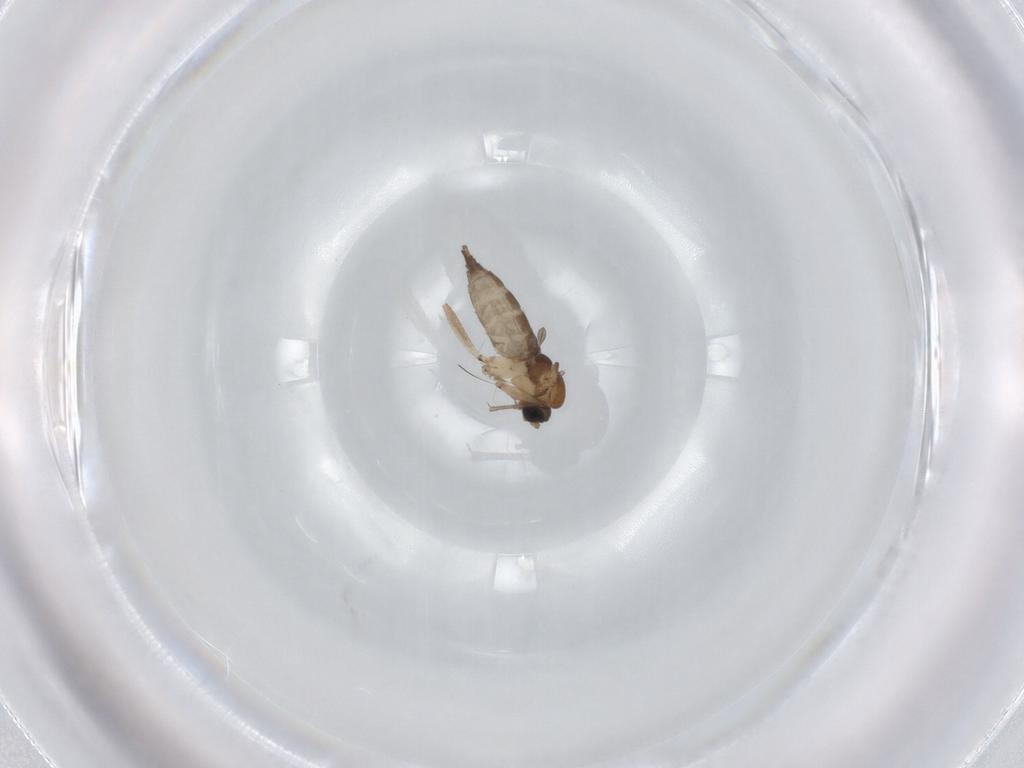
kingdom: Animalia
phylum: Arthropoda
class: Insecta
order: Diptera
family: Sciaridae
